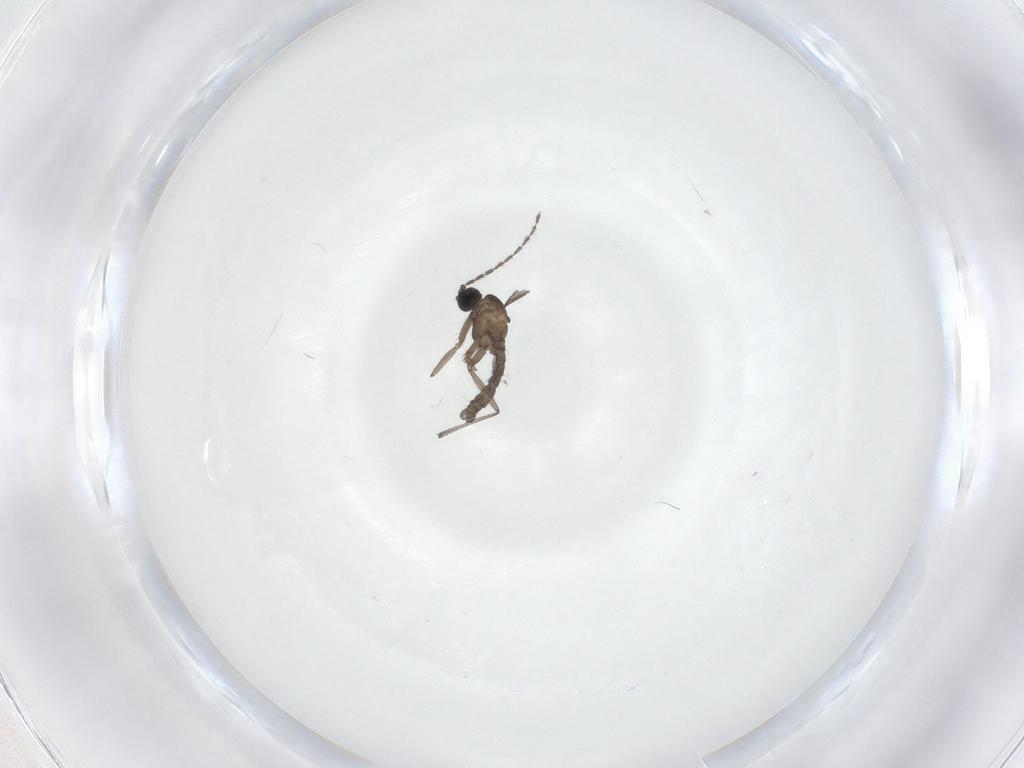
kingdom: Animalia
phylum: Arthropoda
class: Insecta
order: Diptera
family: Sciaridae
